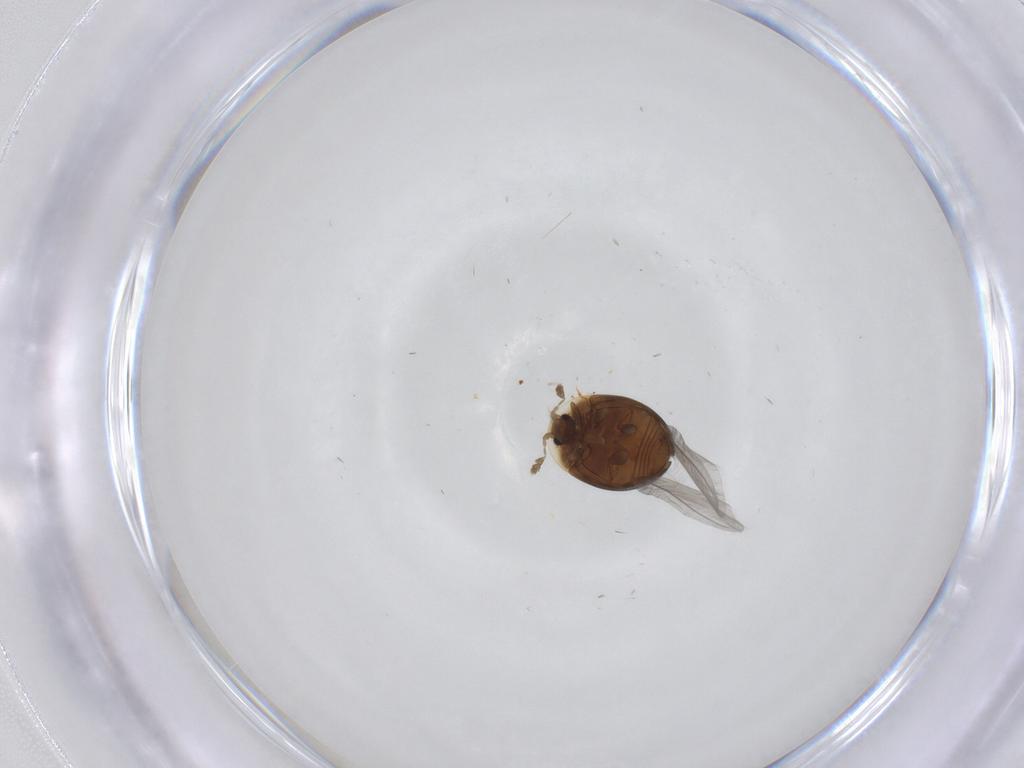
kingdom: Animalia
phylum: Arthropoda
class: Insecta
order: Coleoptera
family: Corylophidae
